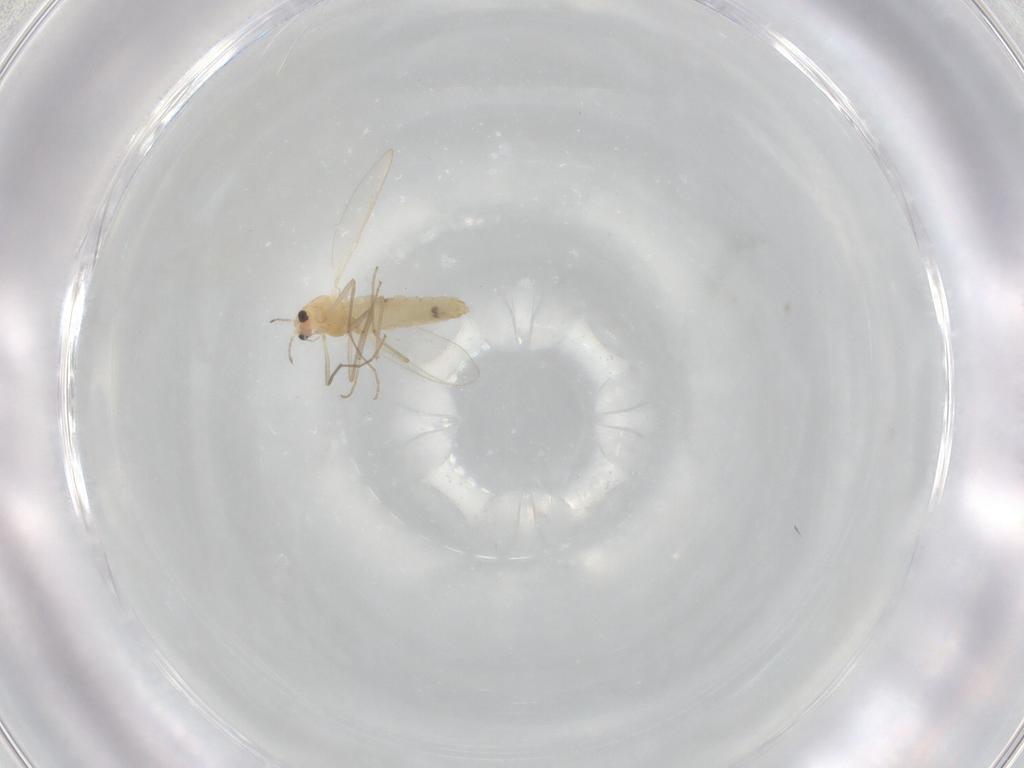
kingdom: Animalia
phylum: Arthropoda
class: Insecta
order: Diptera
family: Chironomidae
